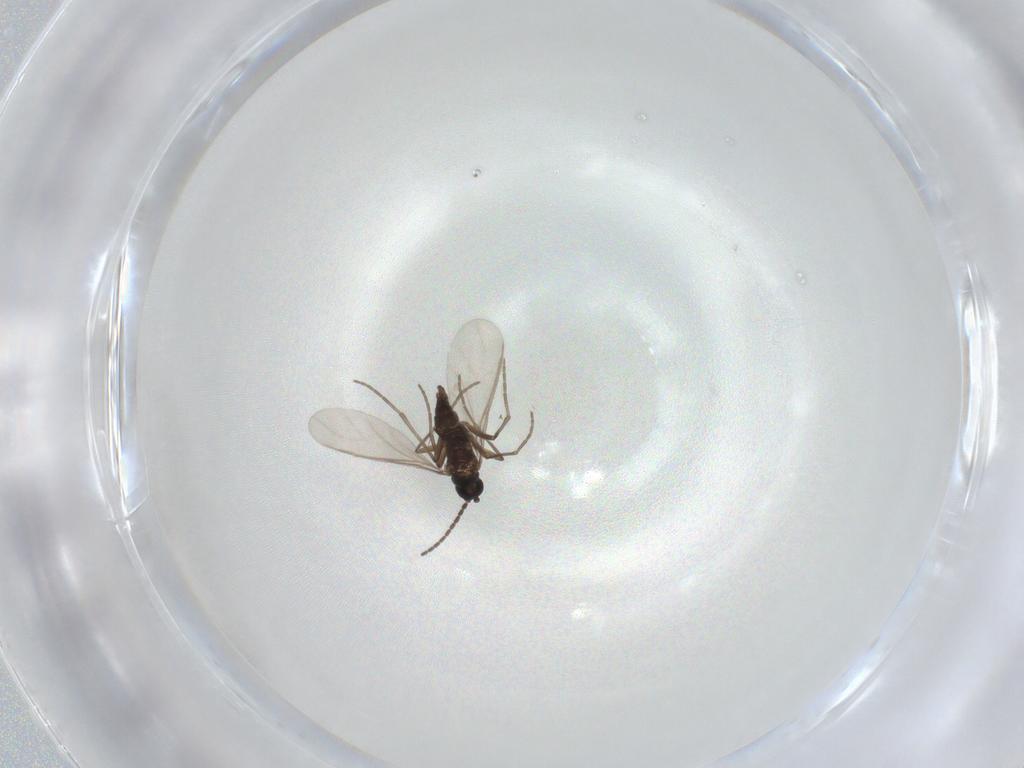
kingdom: Animalia
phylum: Arthropoda
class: Insecta
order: Diptera
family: Sciaridae
